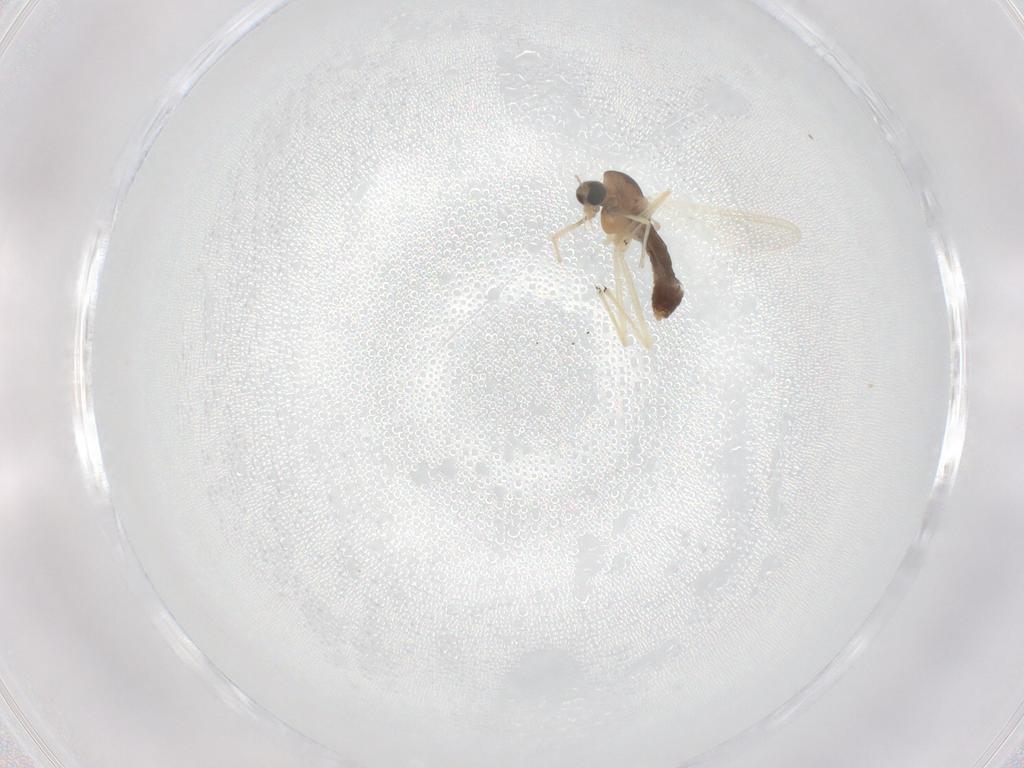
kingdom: Animalia
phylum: Arthropoda
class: Insecta
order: Diptera
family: Chironomidae
